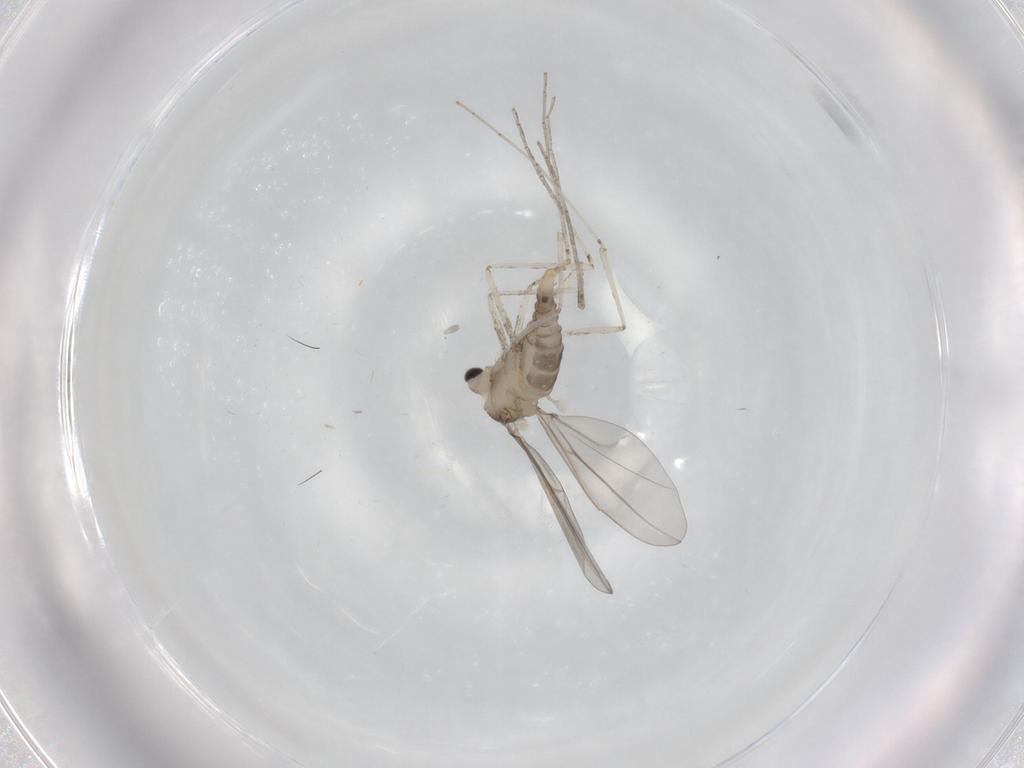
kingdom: Animalia
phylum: Arthropoda
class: Insecta
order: Diptera
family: Cecidomyiidae
